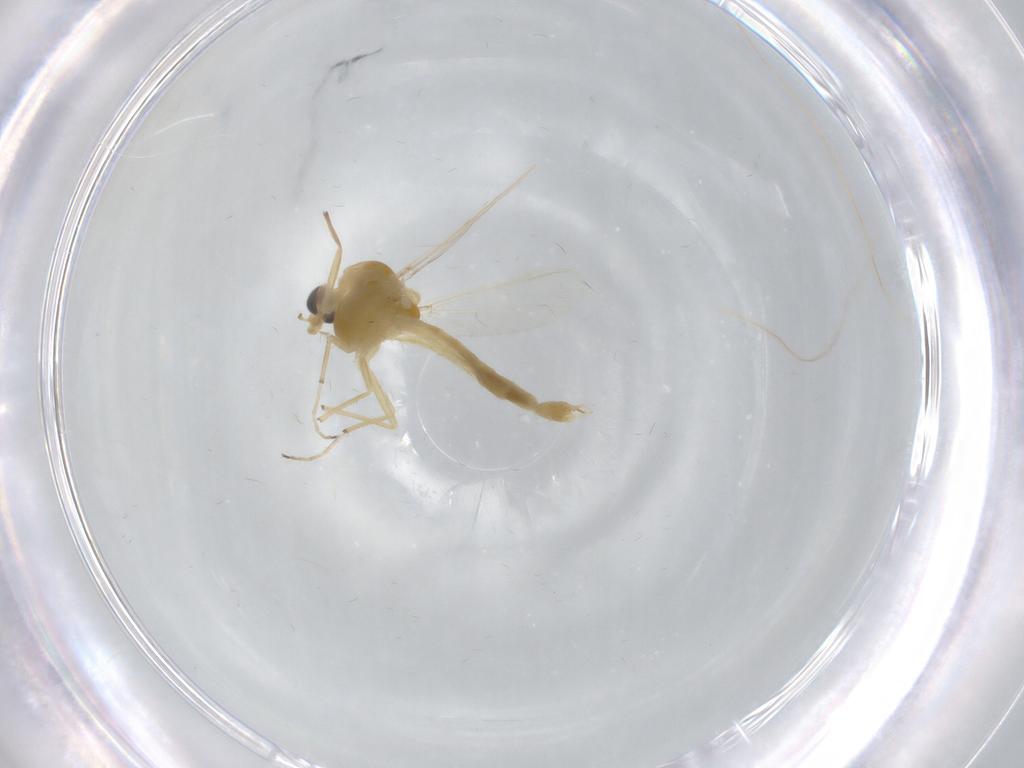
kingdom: Animalia
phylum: Arthropoda
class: Insecta
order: Diptera
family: Chironomidae
